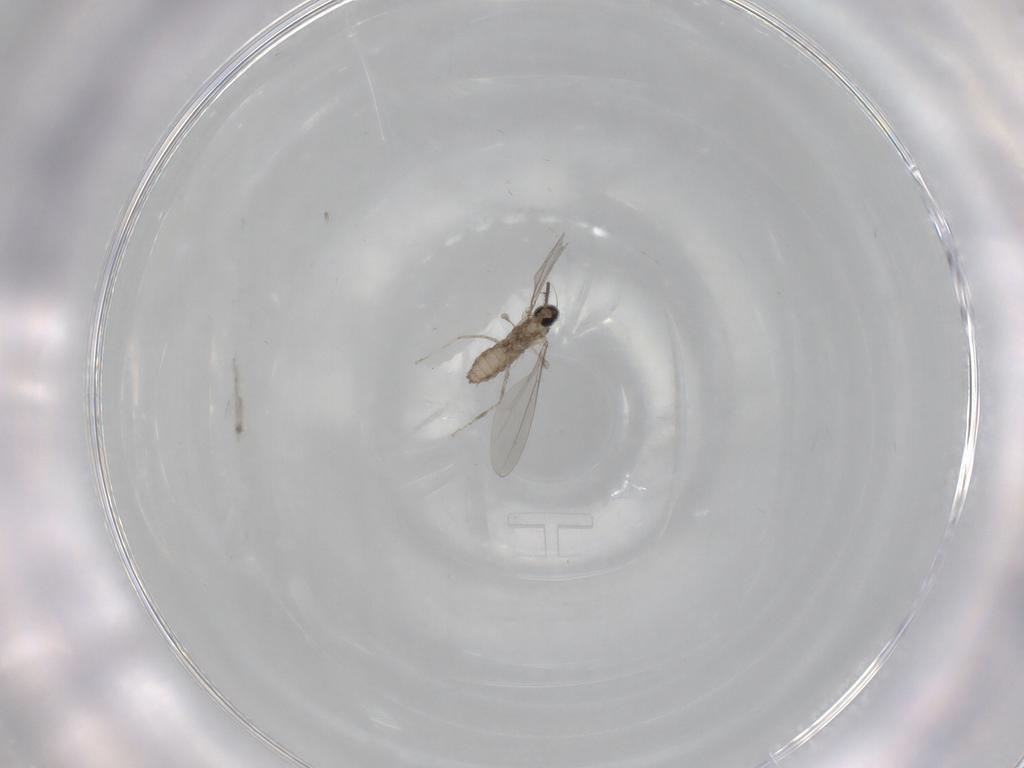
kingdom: Animalia
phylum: Arthropoda
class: Insecta
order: Diptera
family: Cecidomyiidae
